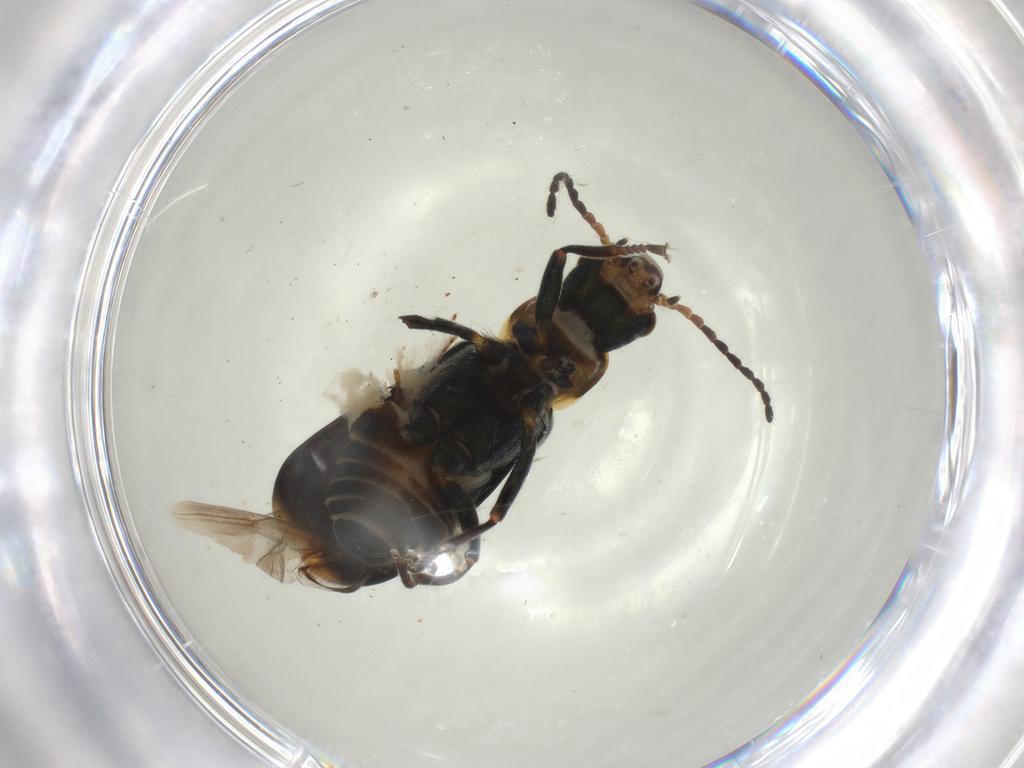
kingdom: Animalia
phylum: Arthropoda
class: Insecta
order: Coleoptera
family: Melyridae
